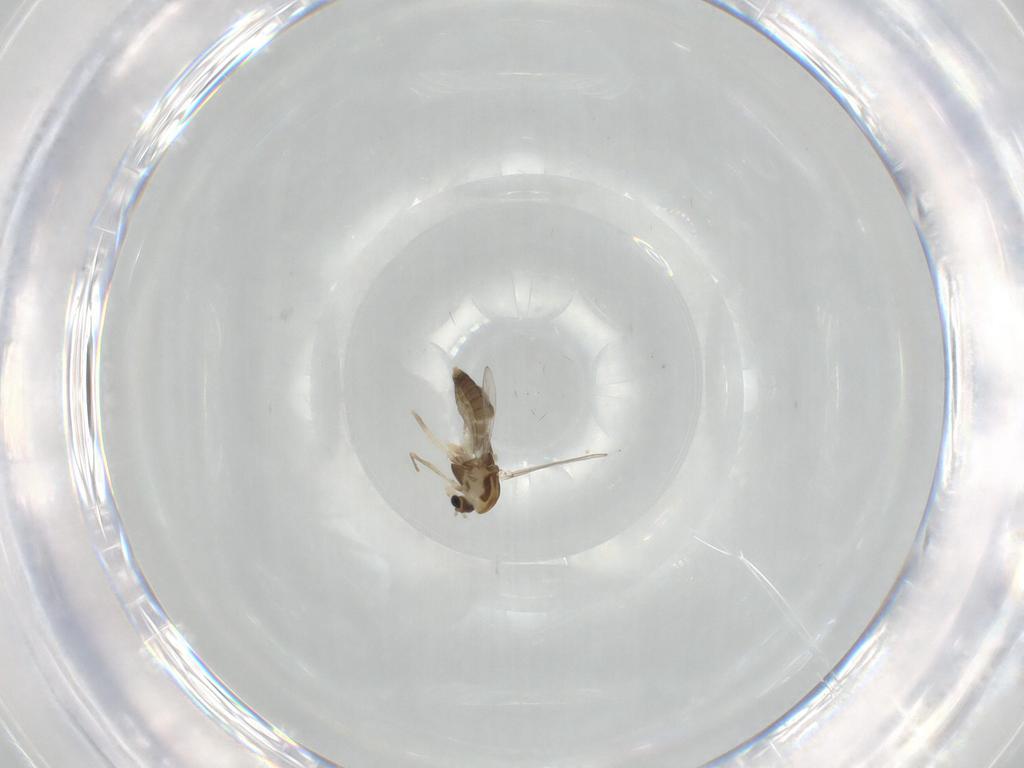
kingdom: Animalia
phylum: Arthropoda
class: Insecta
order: Diptera
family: Chironomidae
